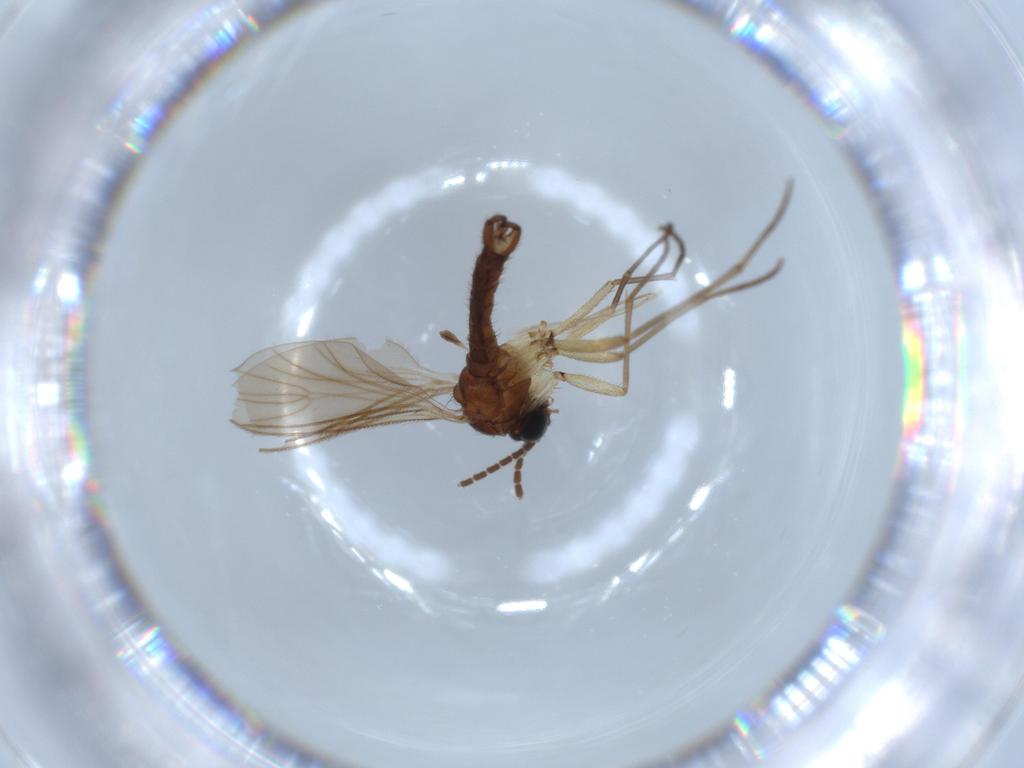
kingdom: Animalia
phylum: Arthropoda
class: Insecta
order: Diptera
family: Sciaridae
